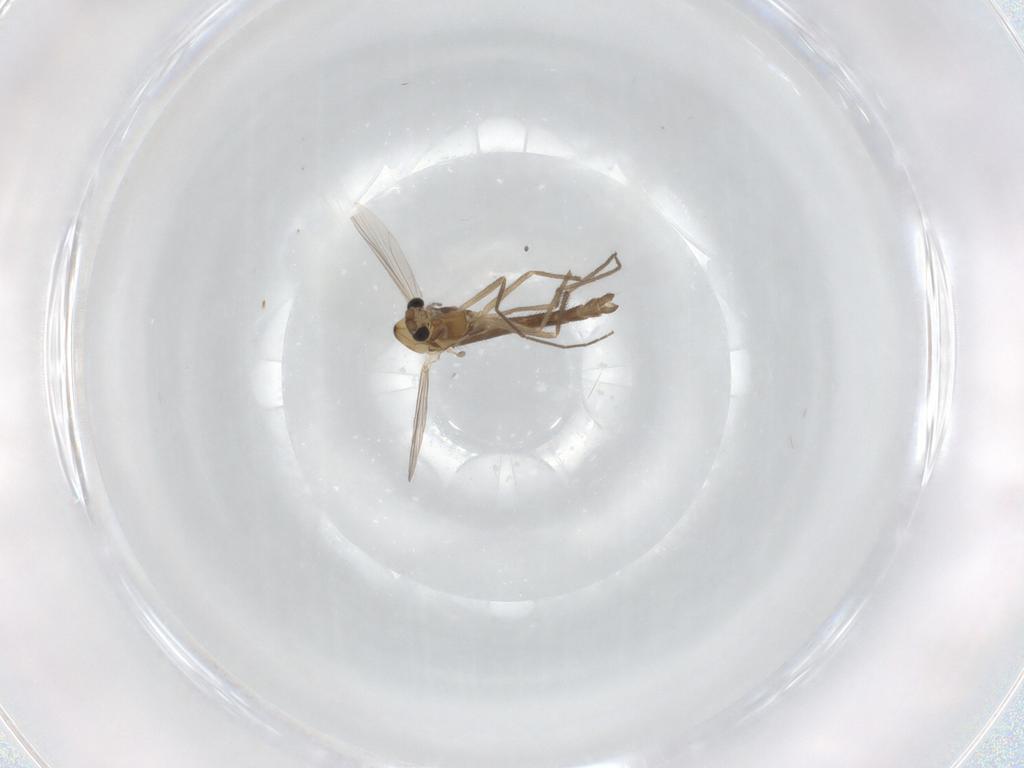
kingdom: Animalia
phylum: Arthropoda
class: Insecta
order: Diptera
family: Chironomidae
